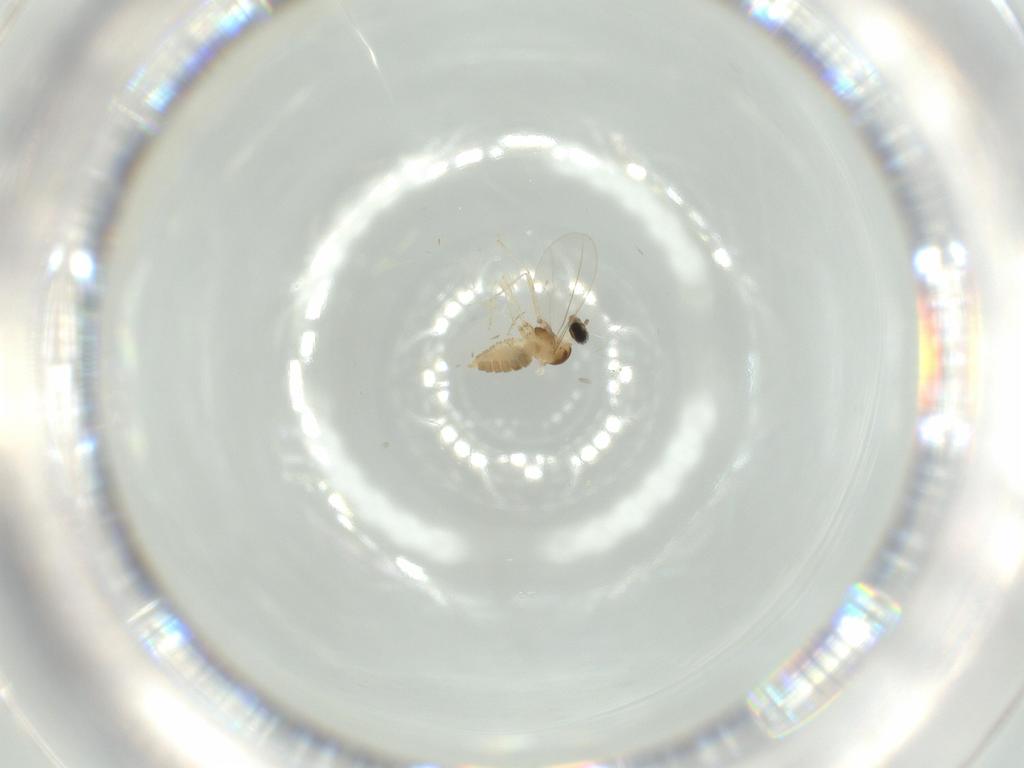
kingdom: Animalia
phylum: Arthropoda
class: Insecta
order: Diptera
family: Cecidomyiidae
